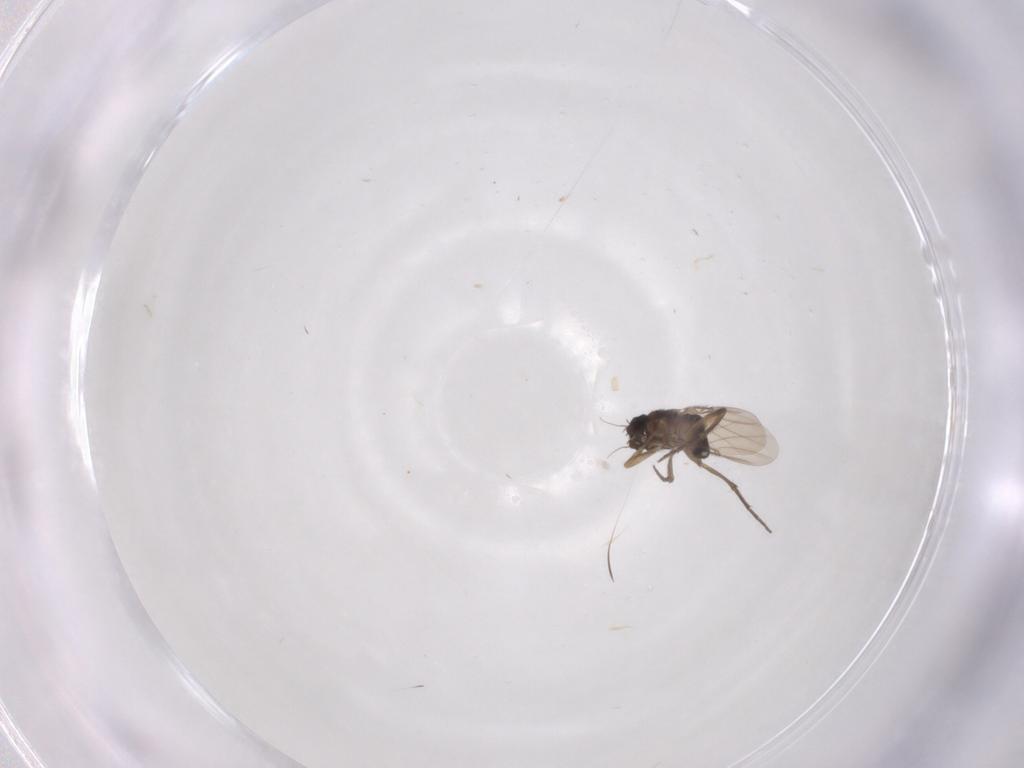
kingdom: Animalia
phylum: Arthropoda
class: Insecta
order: Diptera
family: Phoridae
